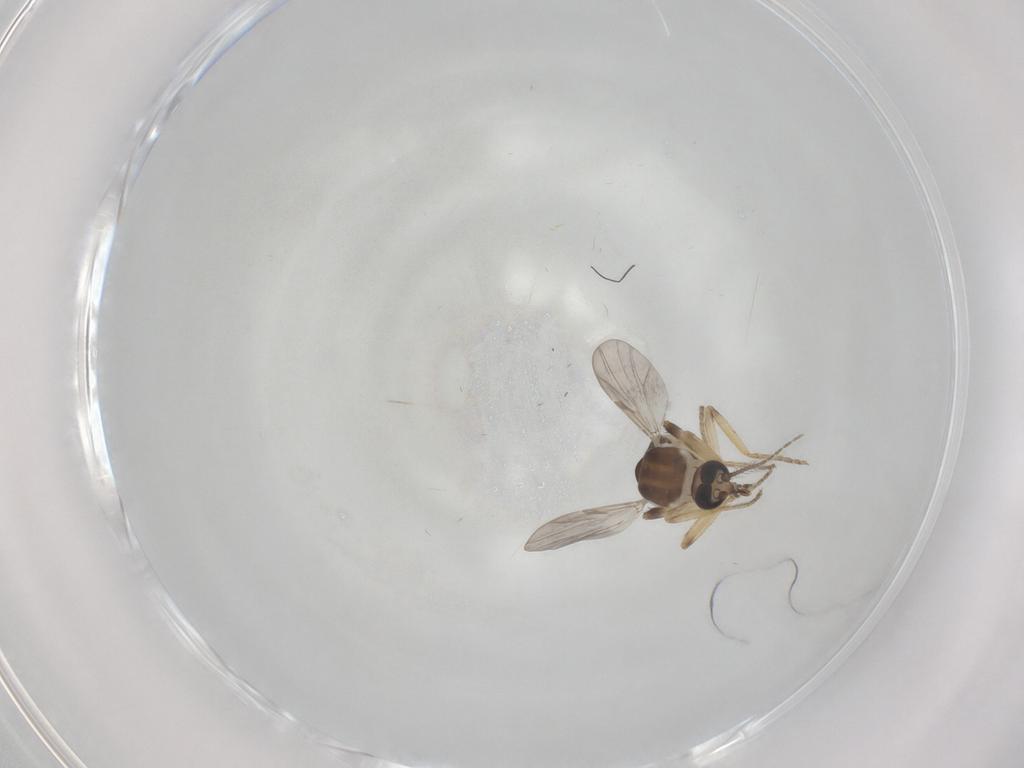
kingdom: Animalia
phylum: Arthropoda
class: Insecta
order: Diptera
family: Ceratopogonidae
